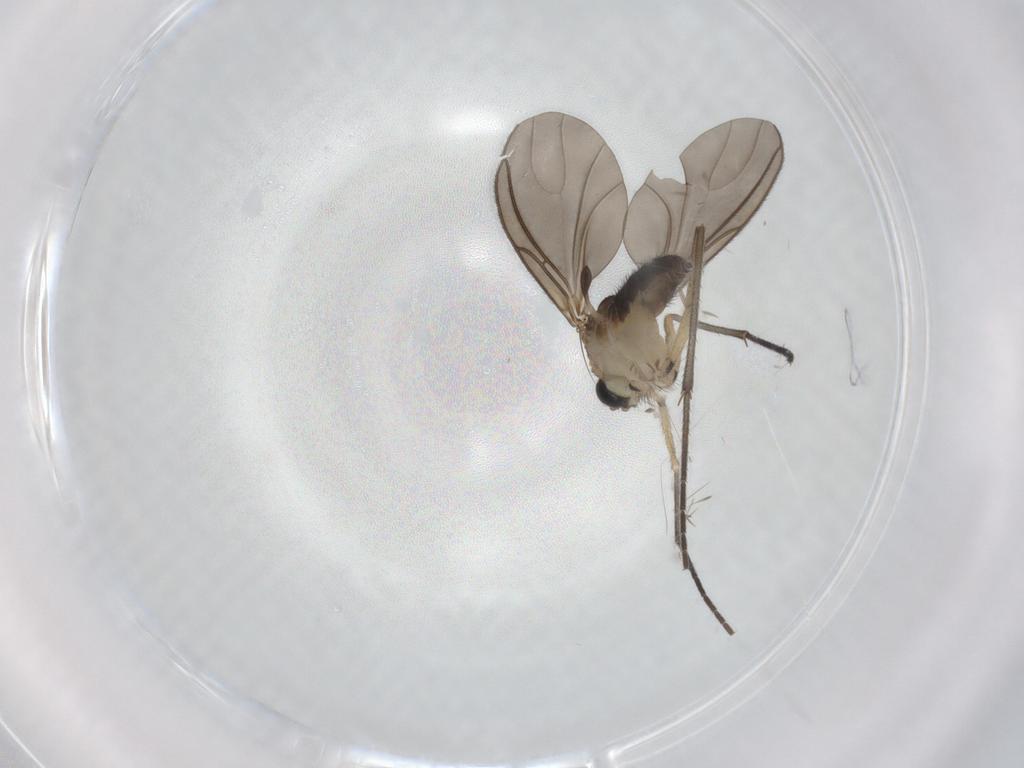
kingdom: Animalia
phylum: Arthropoda
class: Insecta
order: Diptera
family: Sciaridae
